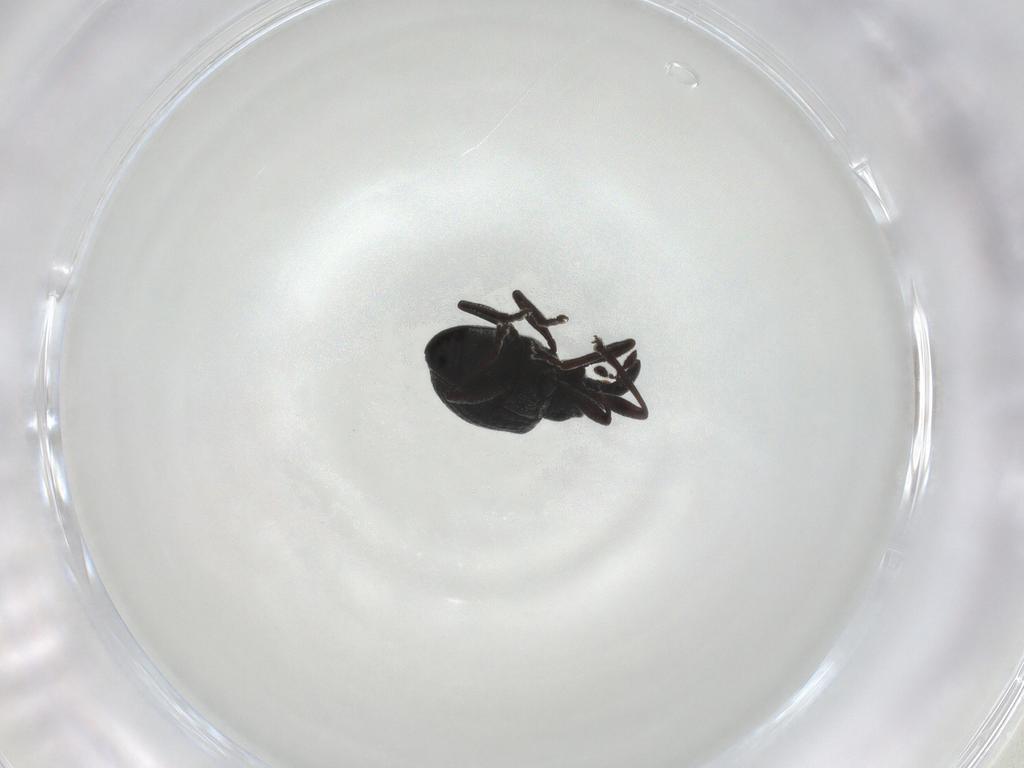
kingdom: Animalia
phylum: Arthropoda
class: Insecta
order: Coleoptera
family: Brentidae
